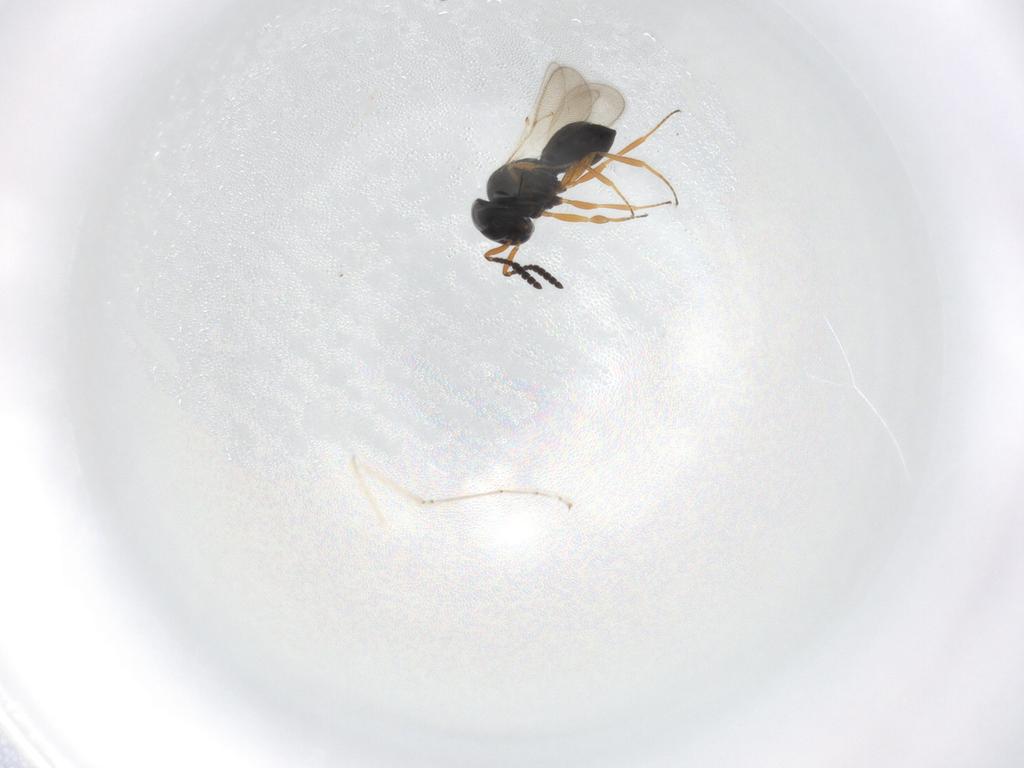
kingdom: Animalia
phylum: Arthropoda
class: Insecta
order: Hymenoptera
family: Scelionidae
